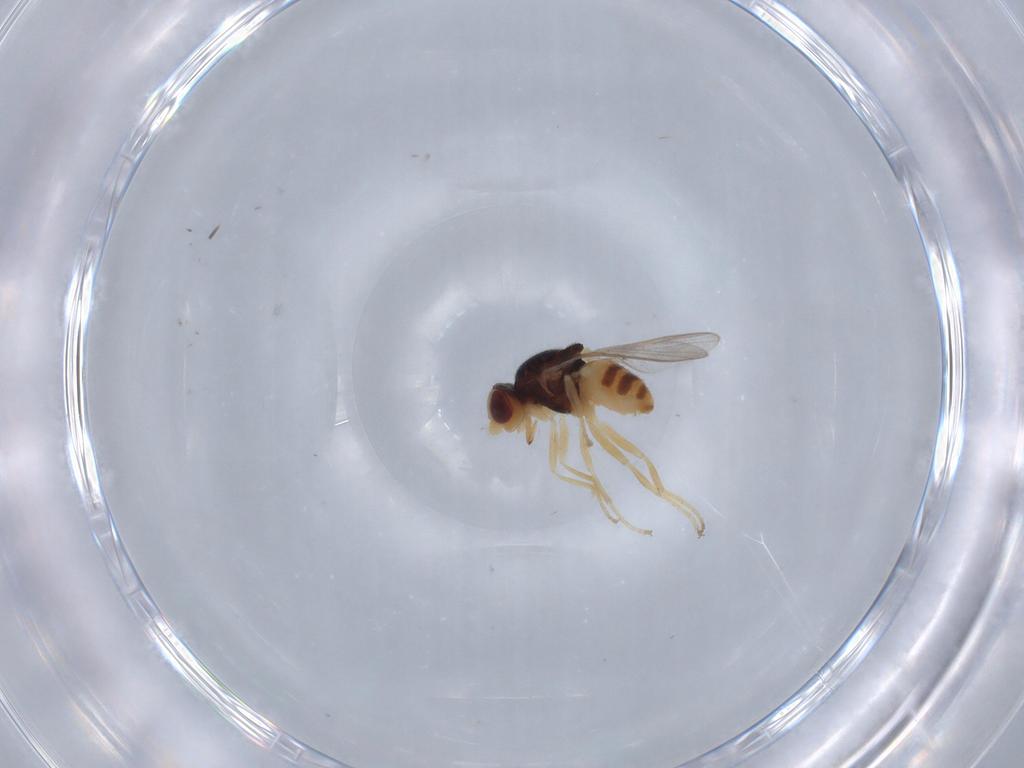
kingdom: Animalia
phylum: Arthropoda
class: Insecta
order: Diptera
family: Chloropidae
